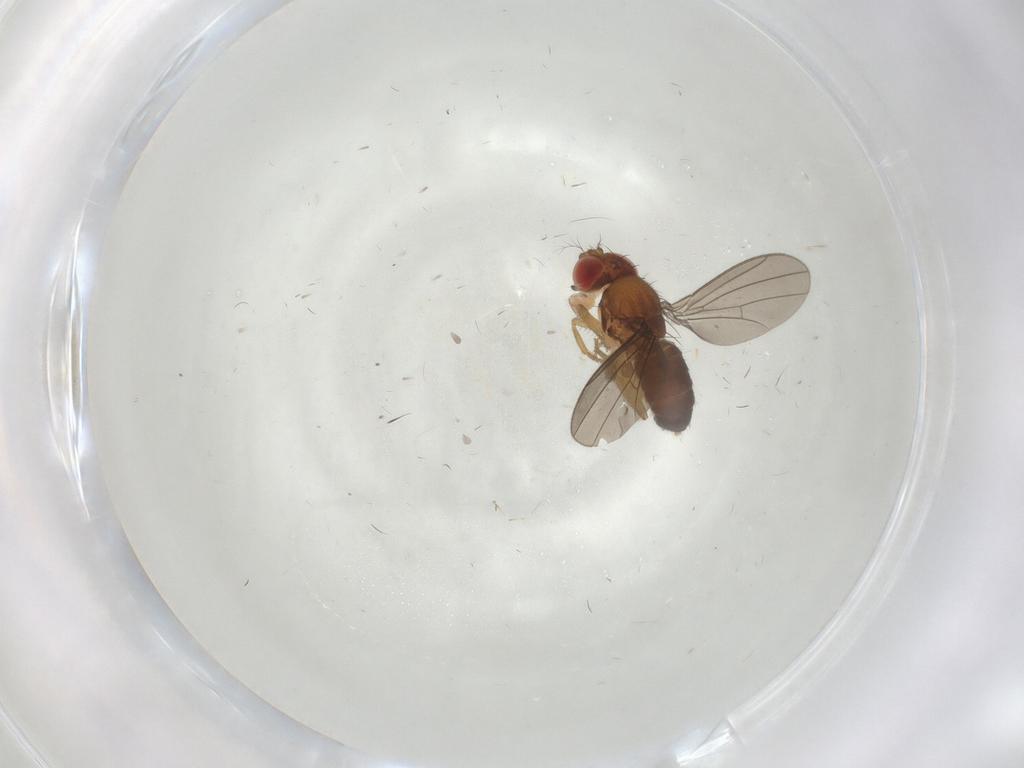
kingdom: Animalia
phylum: Arthropoda
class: Insecta
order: Diptera
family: Drosophilidae
